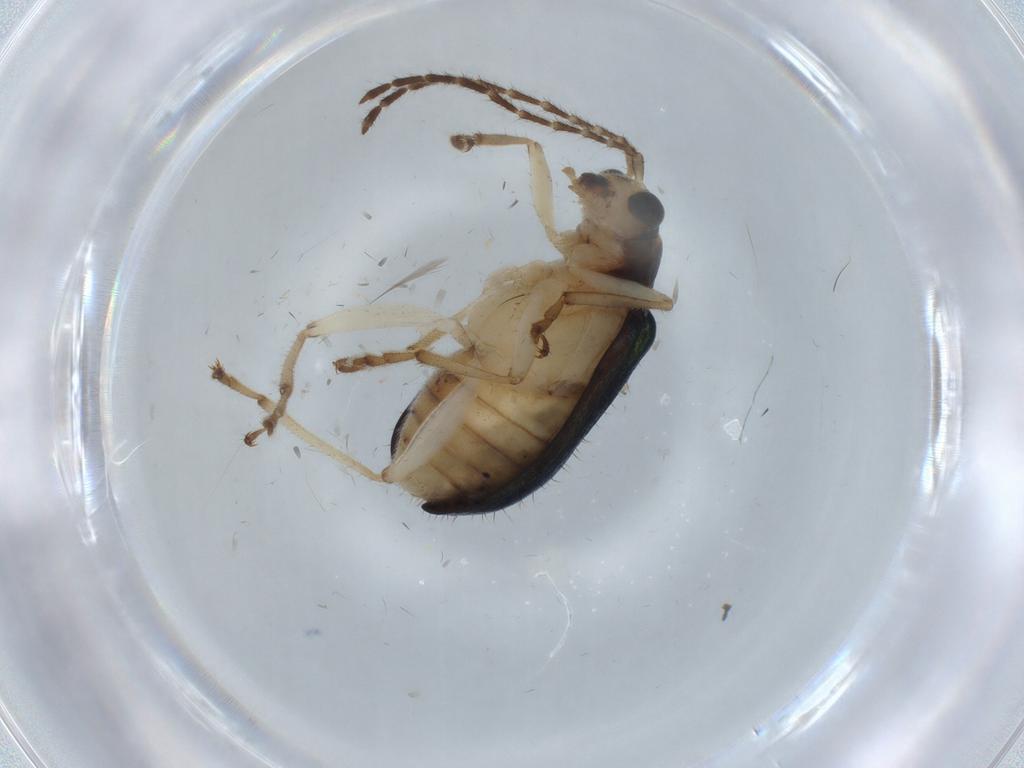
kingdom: Animalia
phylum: Arthropoda
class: Insecta
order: Coleoptera
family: Chrysomelidae
